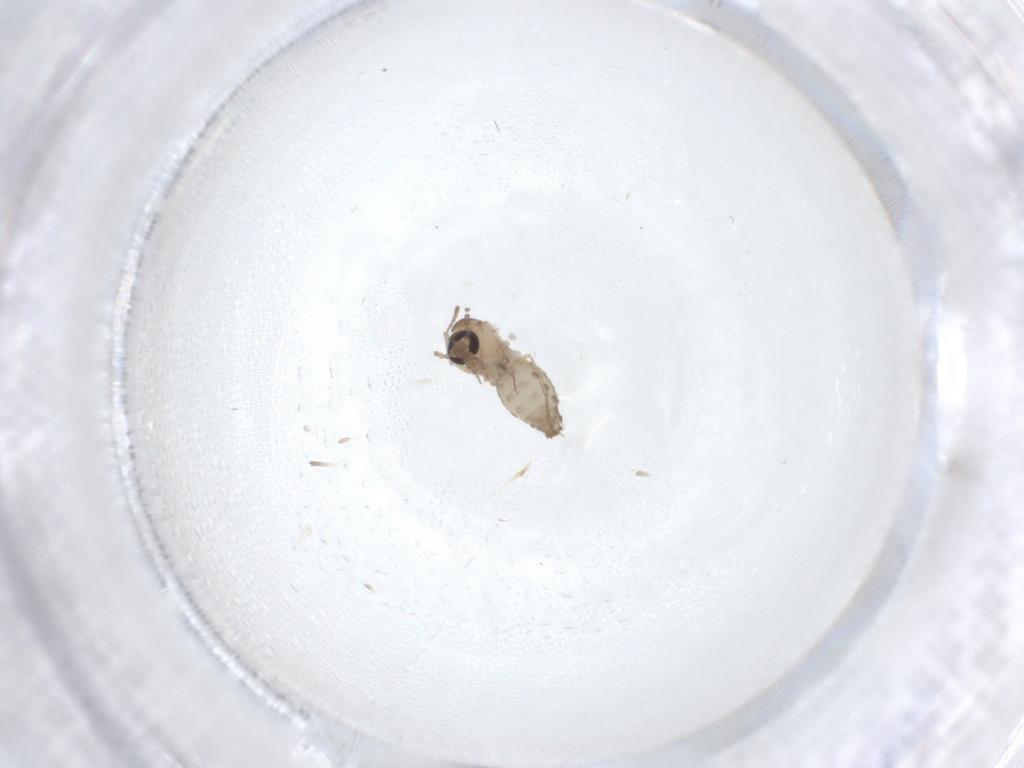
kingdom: Animalia
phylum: Arthropoda
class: Insecta
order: Diptera
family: Psychodidae
